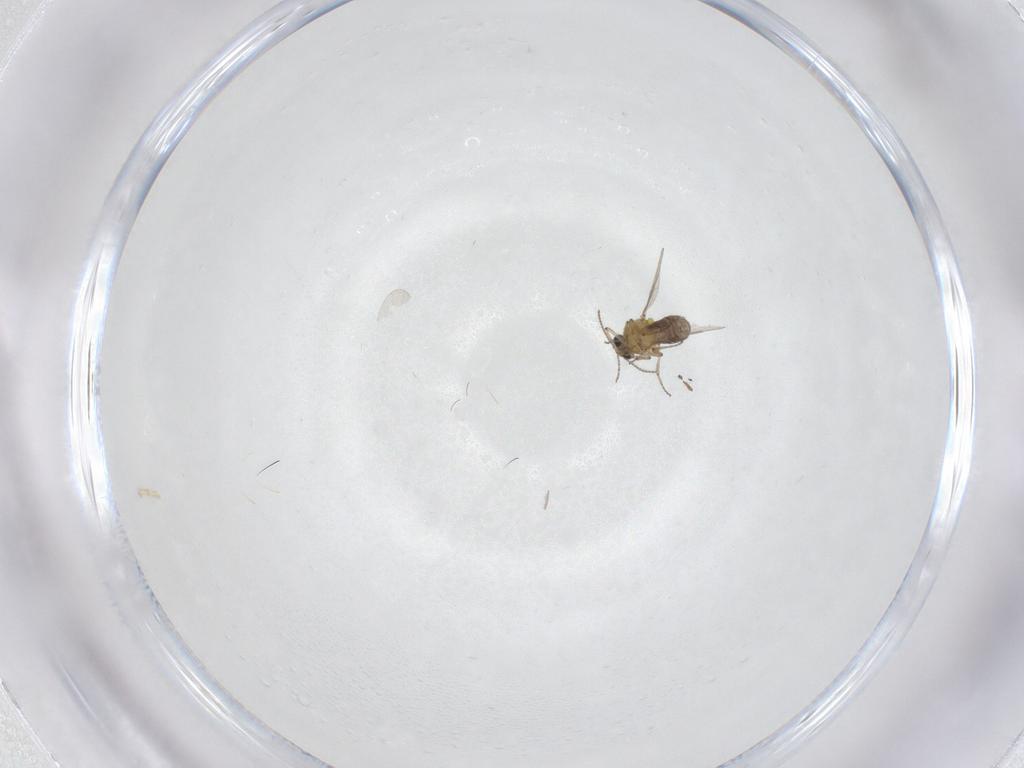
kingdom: Animalia
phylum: Arthropoda
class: Insecta
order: Diptera
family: Ceratopogonidae
